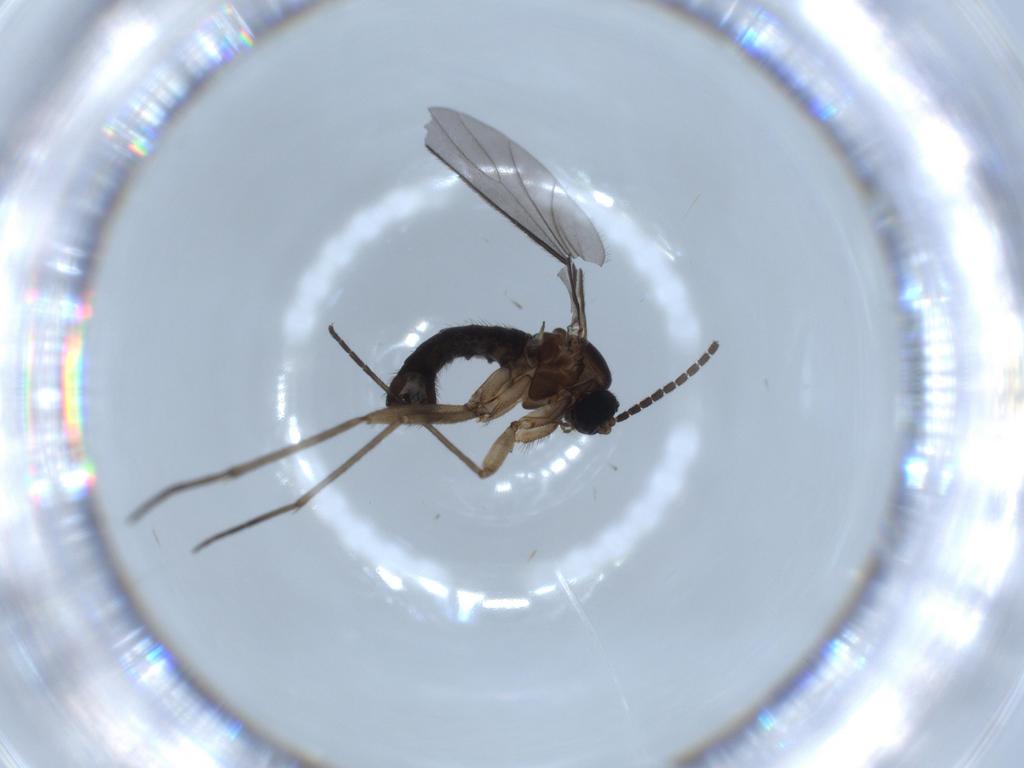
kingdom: Animalia
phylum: Arthropoda
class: Insecta
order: Diptera
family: Sciaridae
